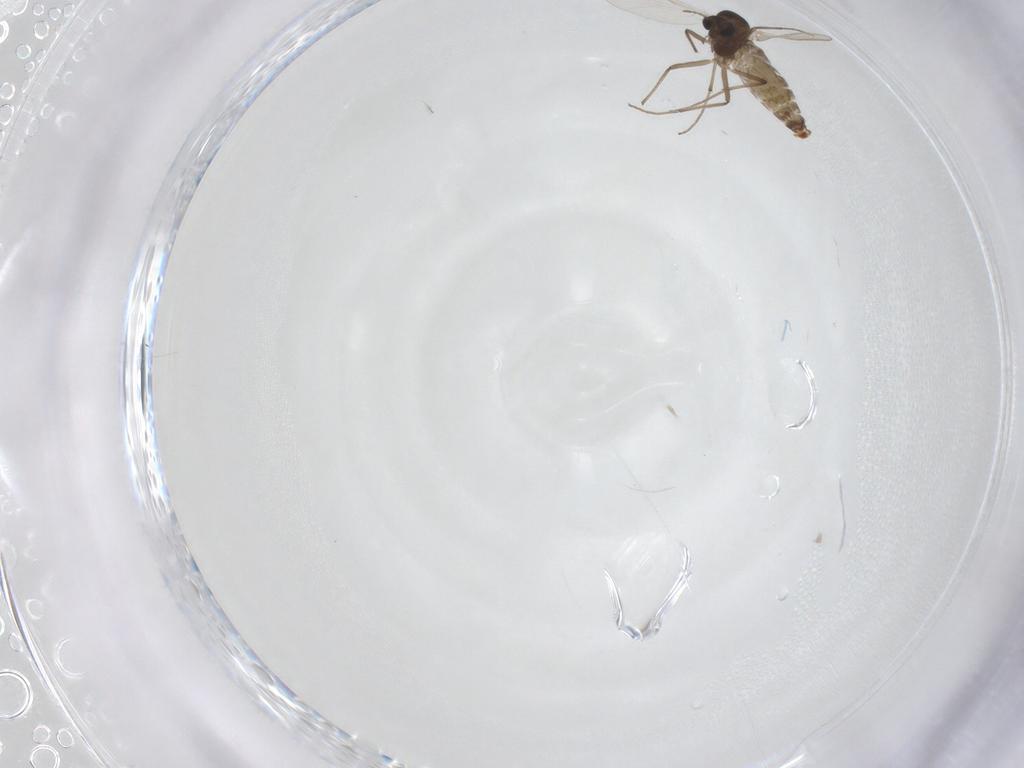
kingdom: Animalia
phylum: Arthropoda
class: Insecta
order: Diptera
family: Chironomidae
